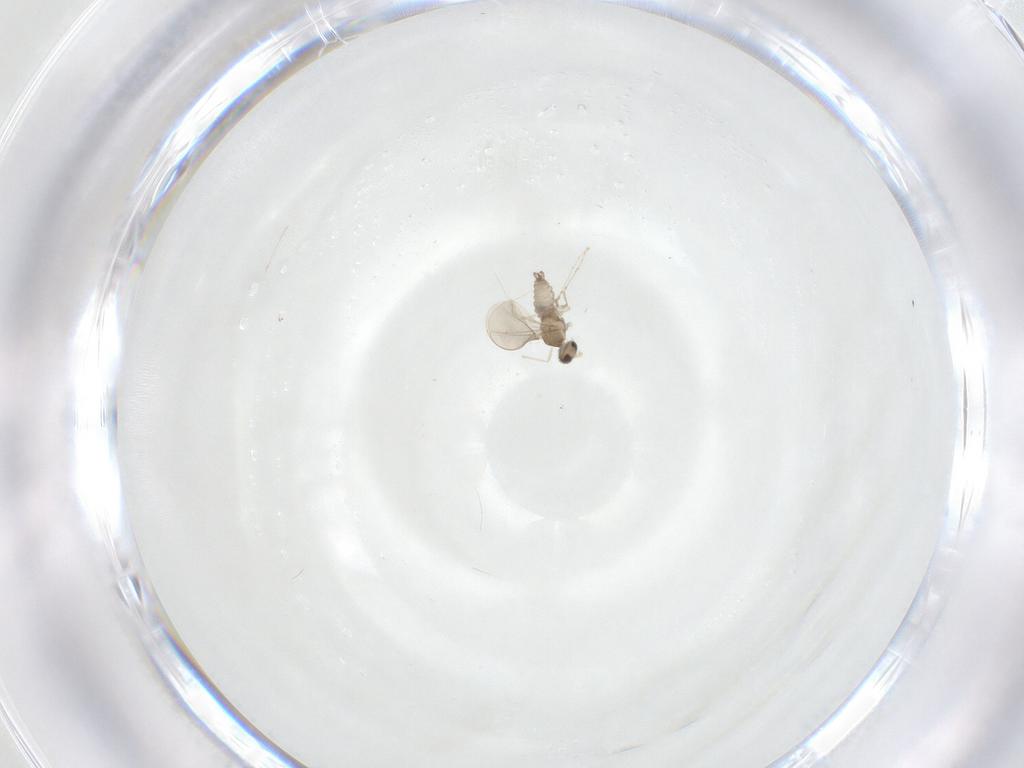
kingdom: Animalia
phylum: Arthropoda
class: Insecta
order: Diptera
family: Cecidomyiidae
